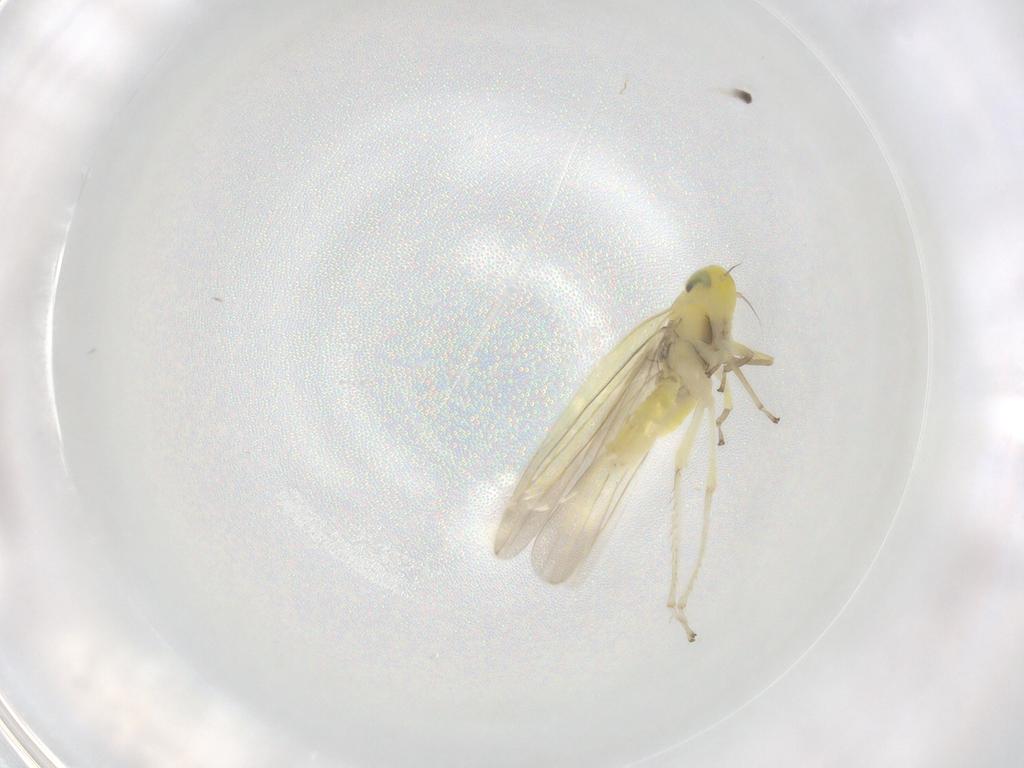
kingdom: Animalia
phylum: Arthropoda
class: Insecta
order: Hemiptera
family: Cicadellidae
